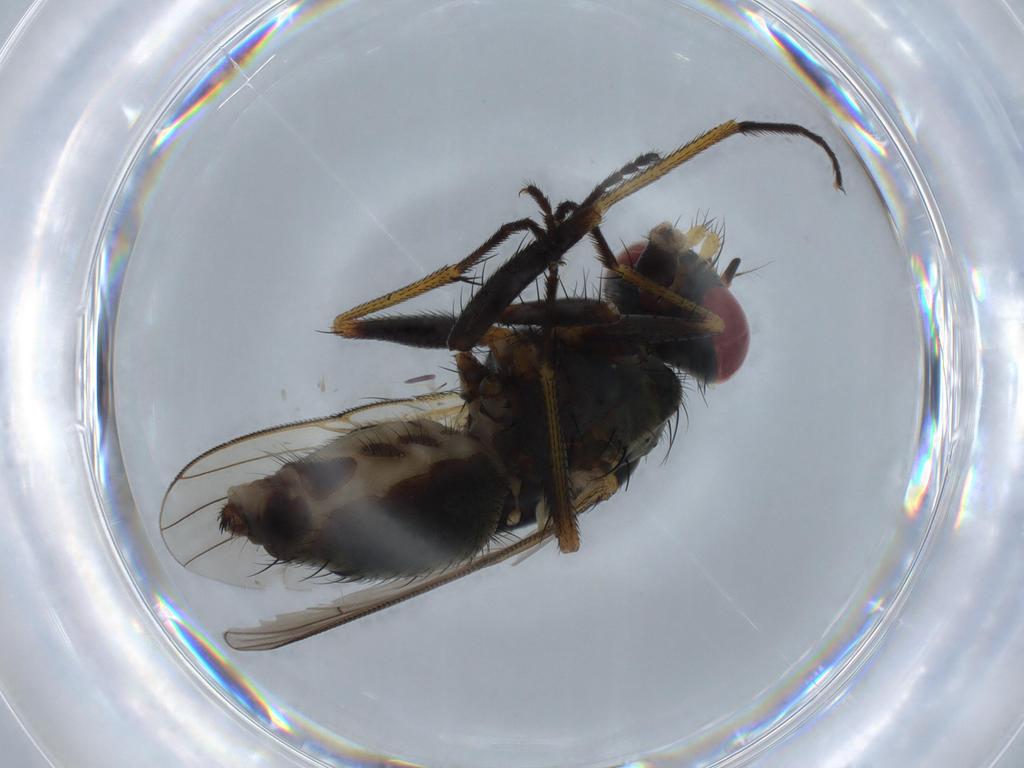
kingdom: Animalia
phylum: Arthropoda
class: Insecta
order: Diptera
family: Muscidae
